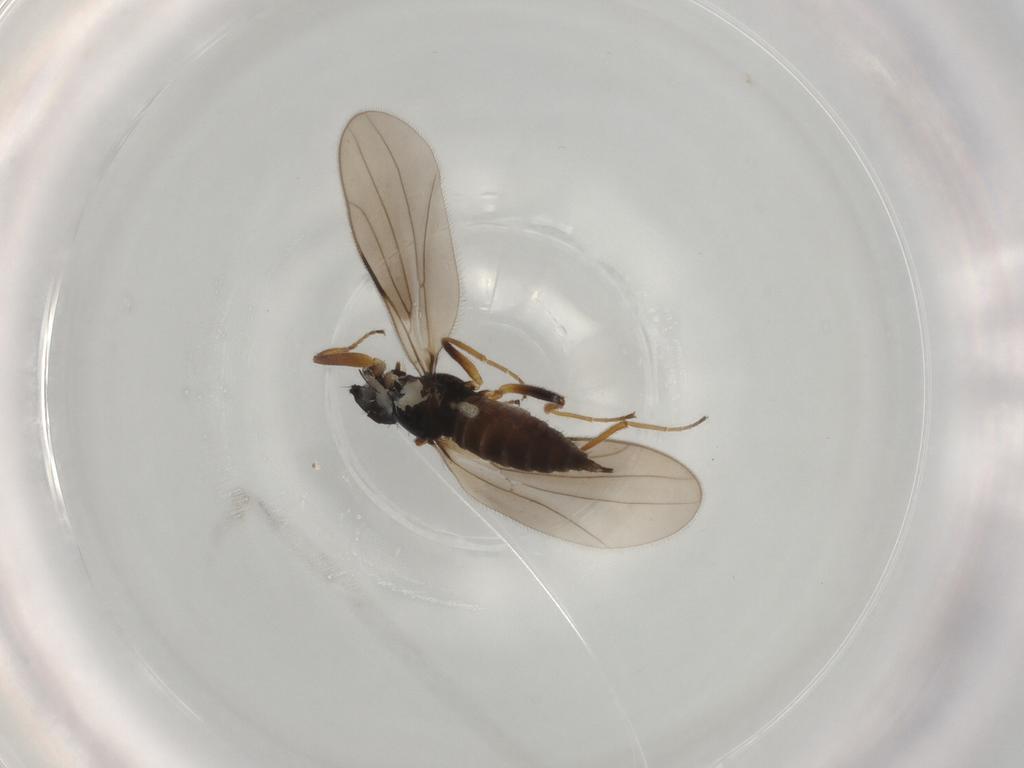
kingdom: Animalia
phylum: Arthropoda
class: Insecta
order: Diptera
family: Hybotidae
